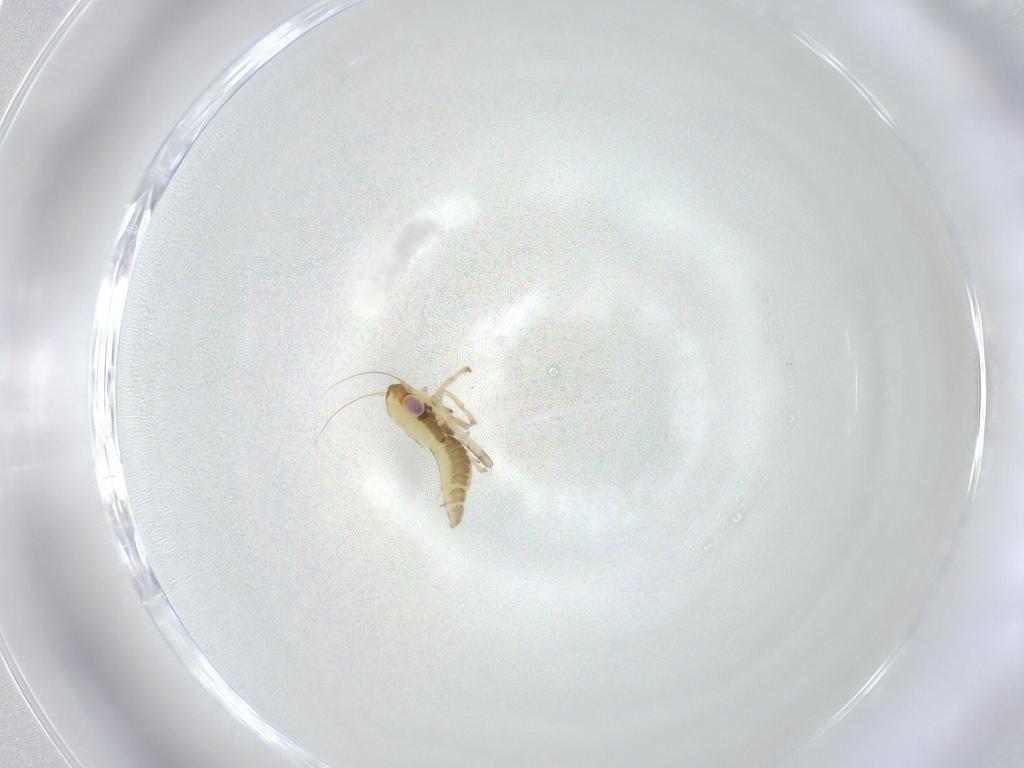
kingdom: Animalia
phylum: Arthropoda
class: Insecta
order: Hemiptera
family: Cicadellidae
